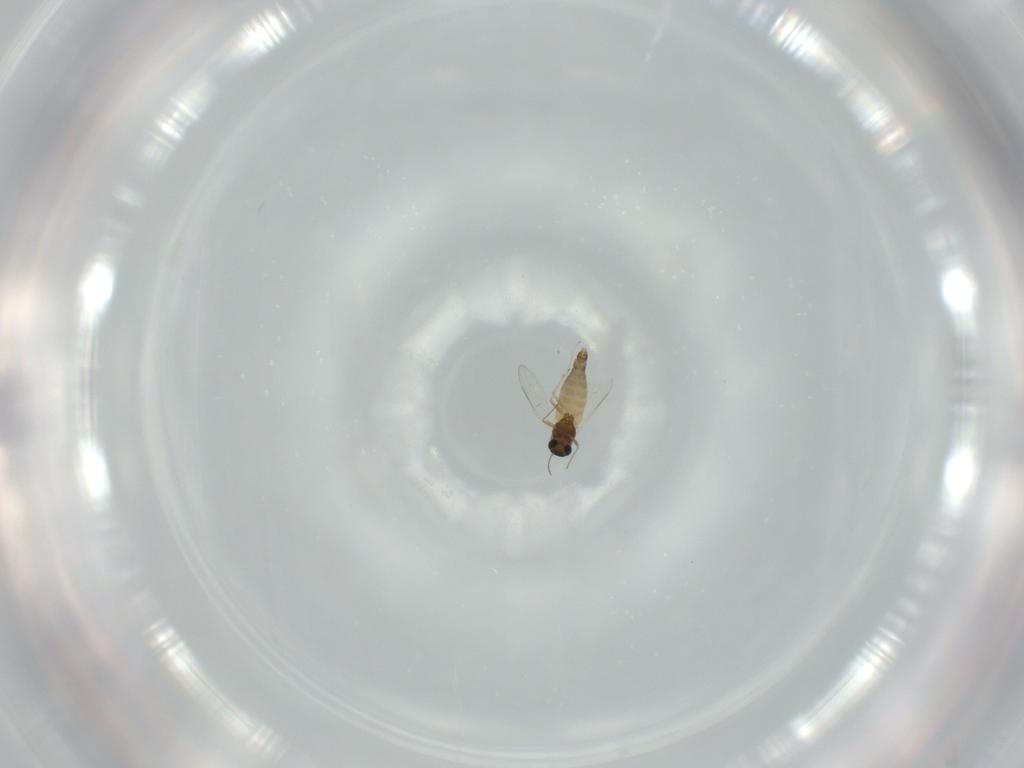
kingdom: Animalia
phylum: Arthropoda
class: Insecta
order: Diptera
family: Chironomidae
